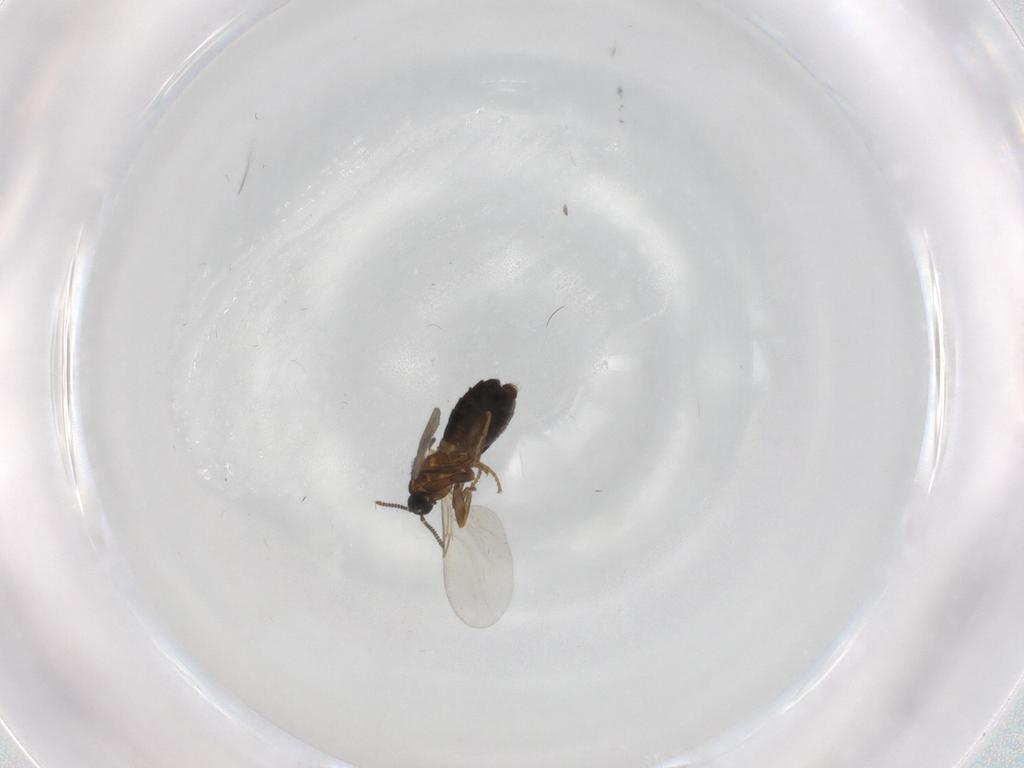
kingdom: Animalia
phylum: Arthropoda
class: Insecta
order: Diptera
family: Scatopsidae
